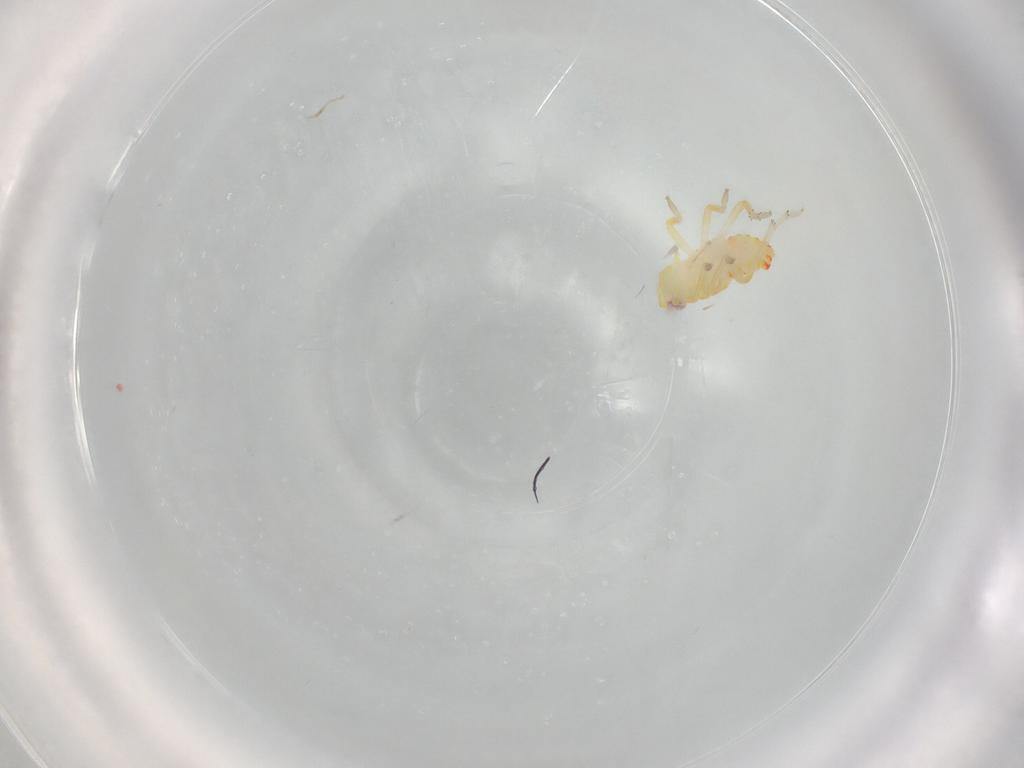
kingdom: Animalia
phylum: Arthropoda
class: Insecta
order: Hemiptera
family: Tropiduchidae
